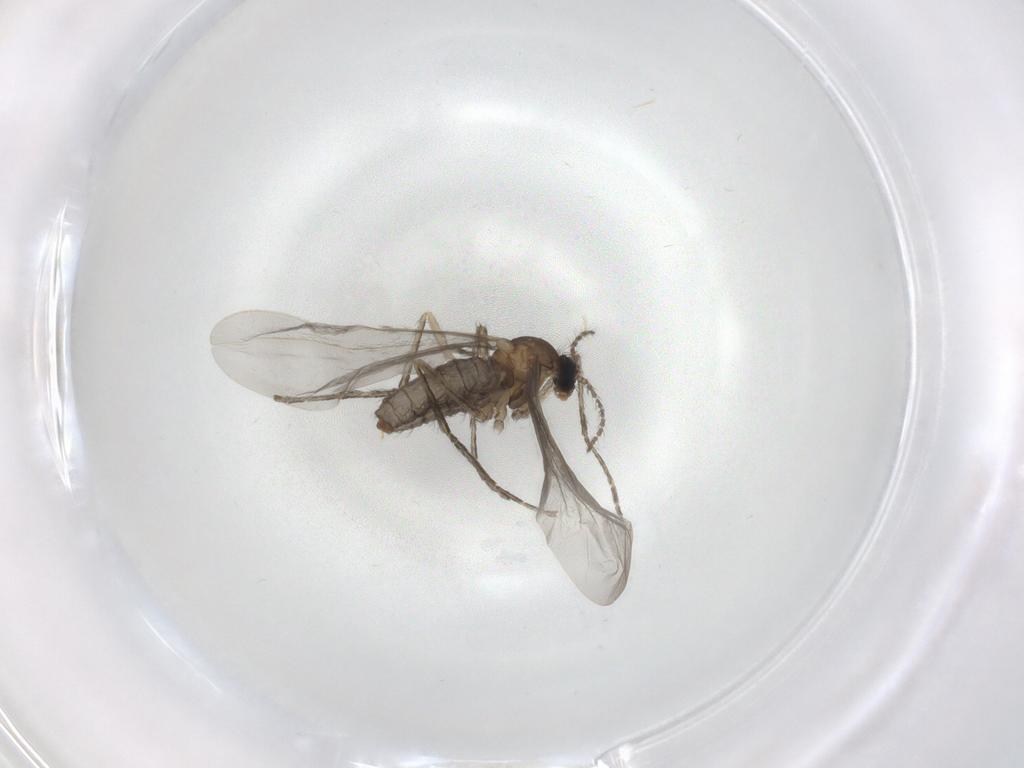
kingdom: Animalia
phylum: Arthropoda
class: Insecta
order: Diptera
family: Cecidomyiidae
